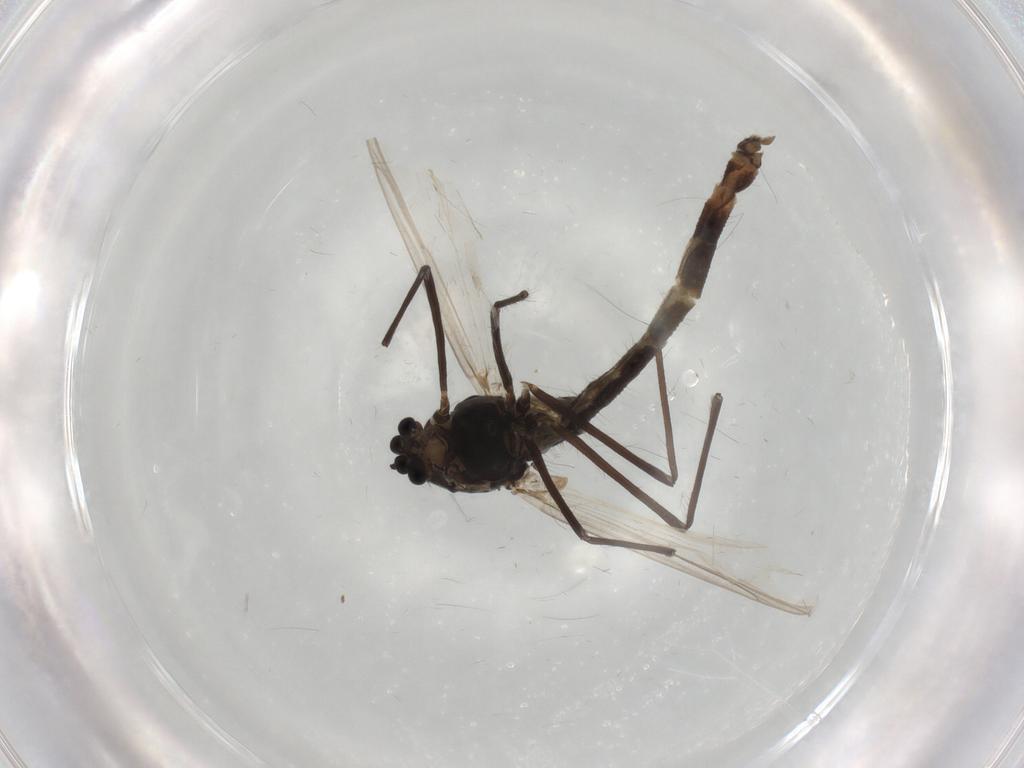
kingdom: Animalia
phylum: Arthropoda
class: Insecta
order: Diptera
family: Chironomidae
